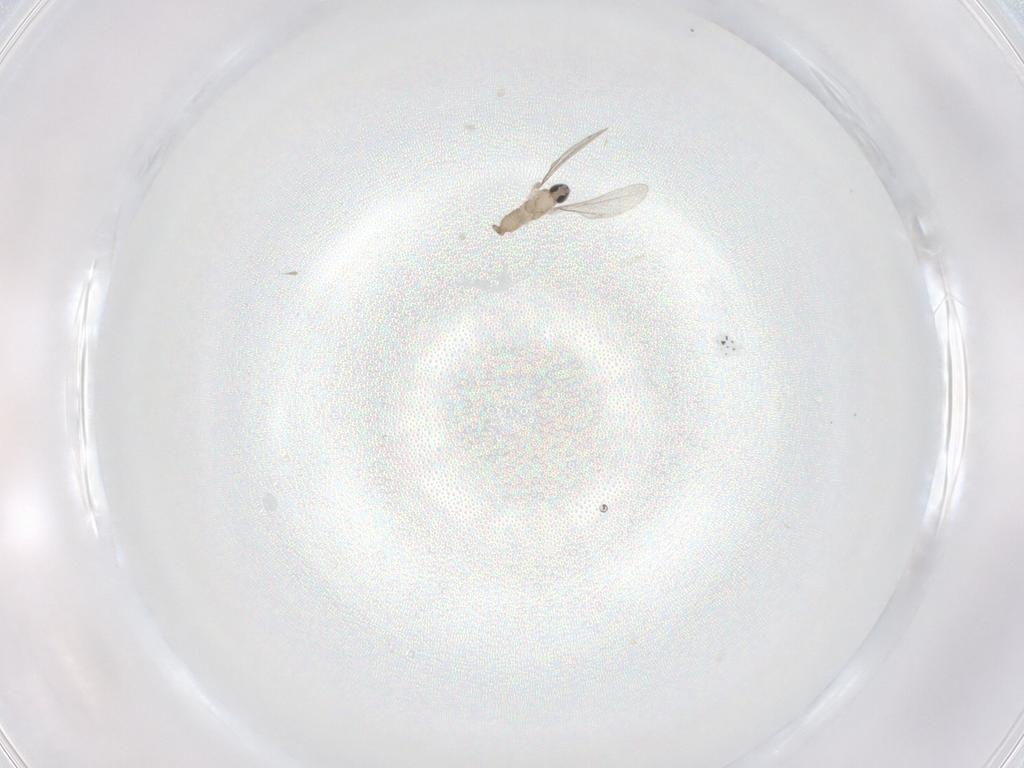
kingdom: Animalia
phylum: Arthropoda
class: Insecta
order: Diptera
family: Ceratopogonidae
